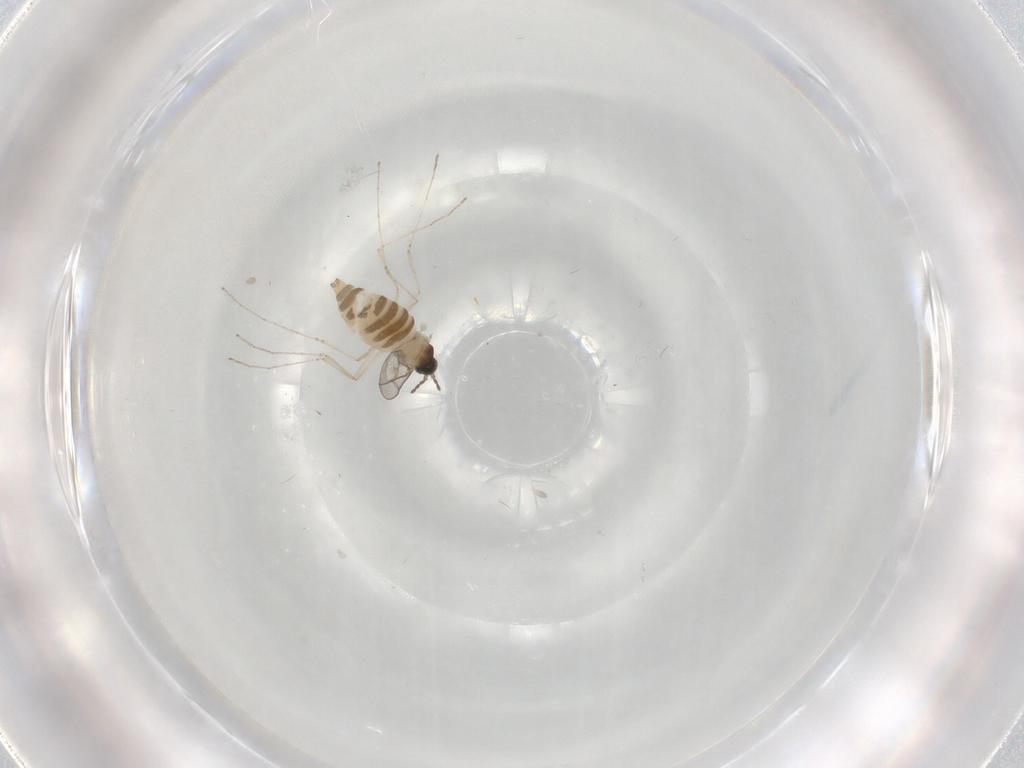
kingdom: Animalia
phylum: Arthropoda
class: Insecta
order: Diptera
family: Cecidomyiidae
